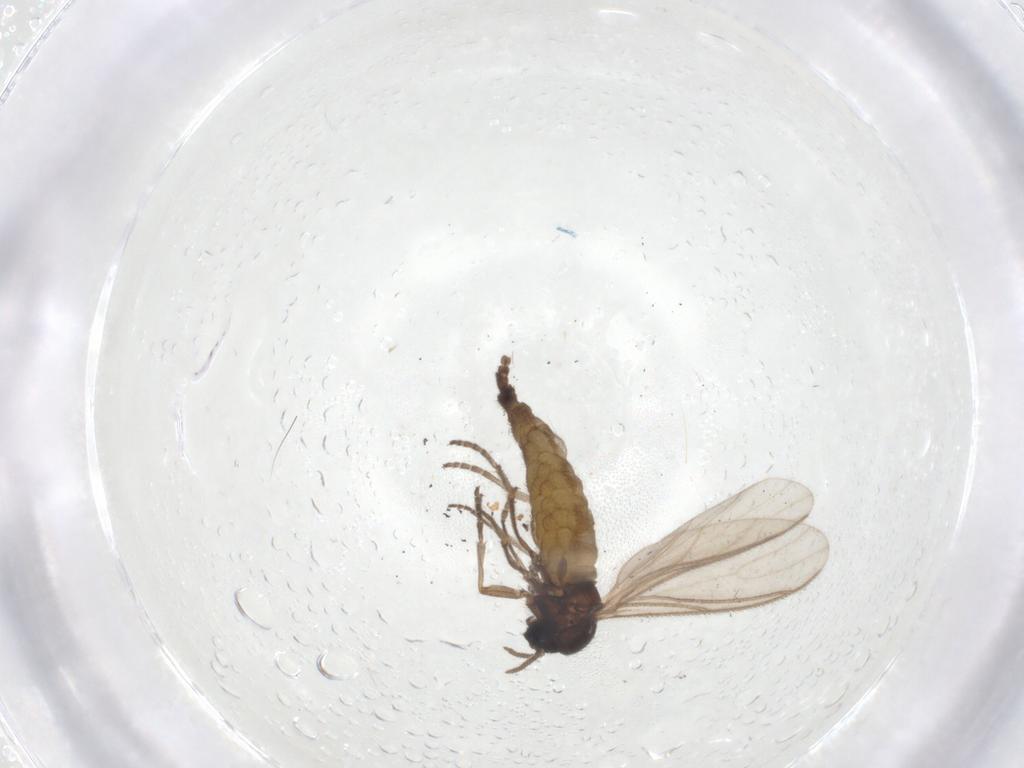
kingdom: Animalia
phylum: Arthropoda
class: Insecta
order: Diptera
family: Sciaridae
